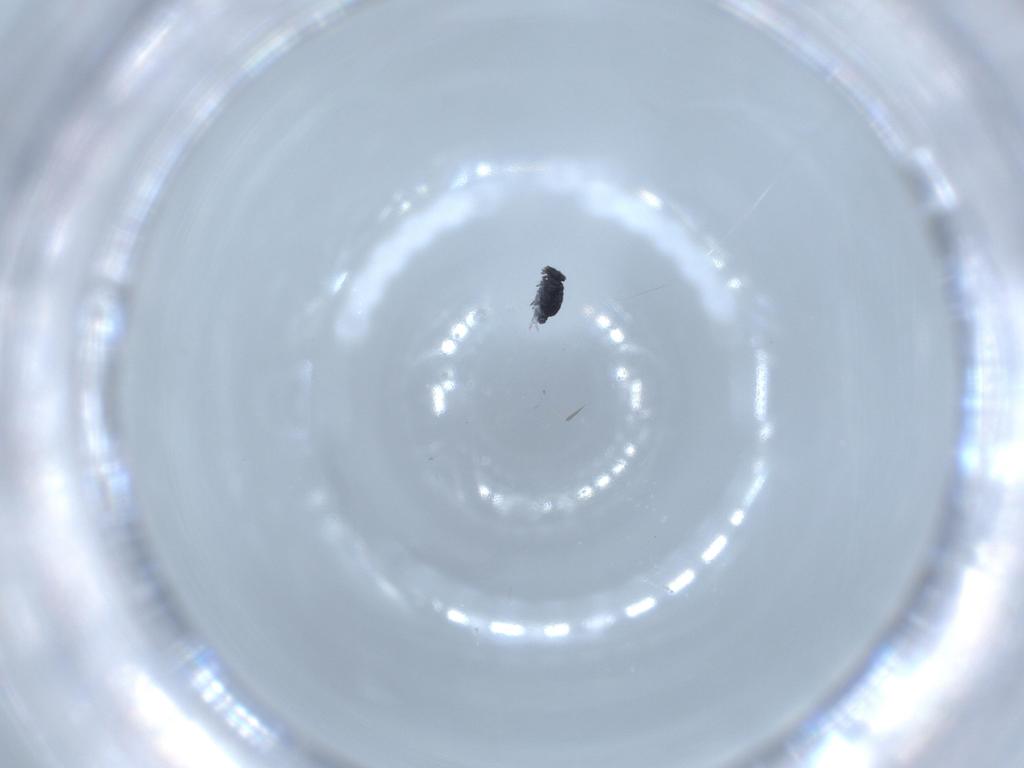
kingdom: Animalia
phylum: Arthropoda
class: Collembola
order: Symphypleona
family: Katiannidae
